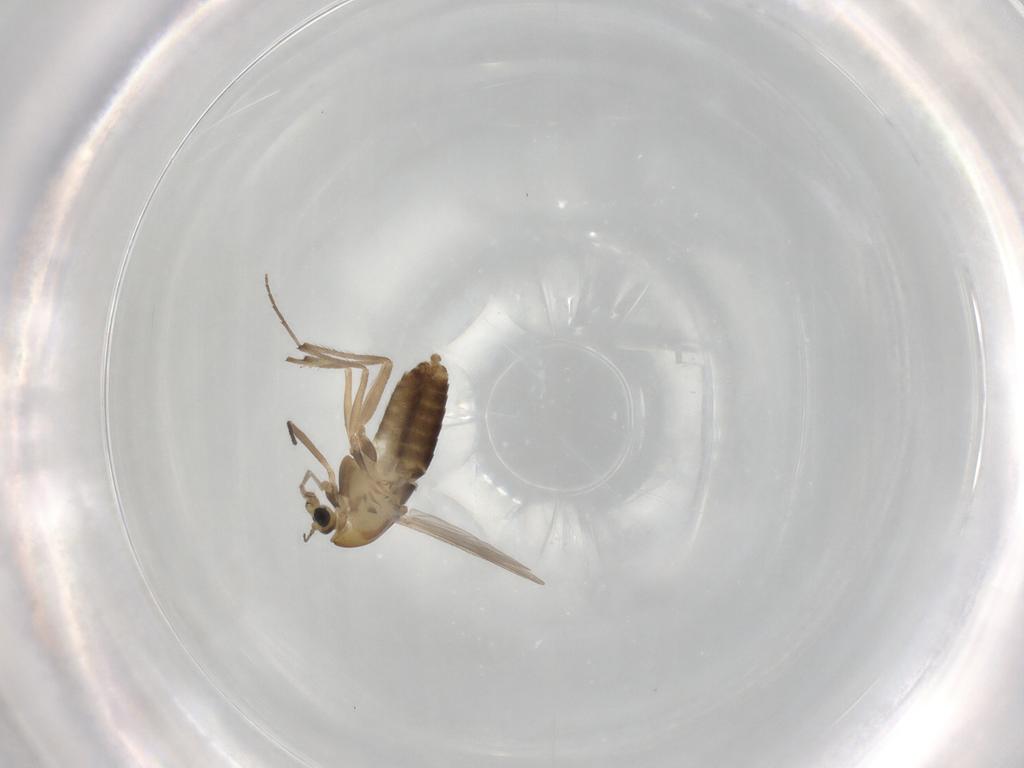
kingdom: Animalia
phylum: Arthropoda
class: Insecta
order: Diptera
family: Chironomidae
